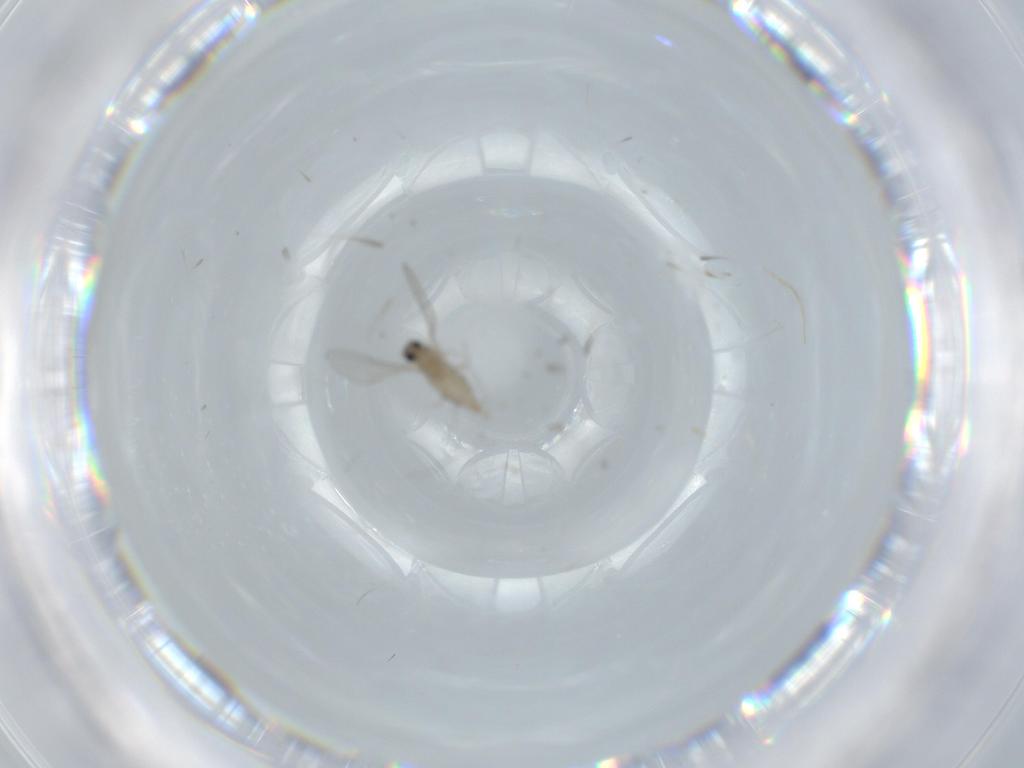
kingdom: Animalia
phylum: Arthropoda
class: Insecta
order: Diptera
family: Cecidomyiidae
